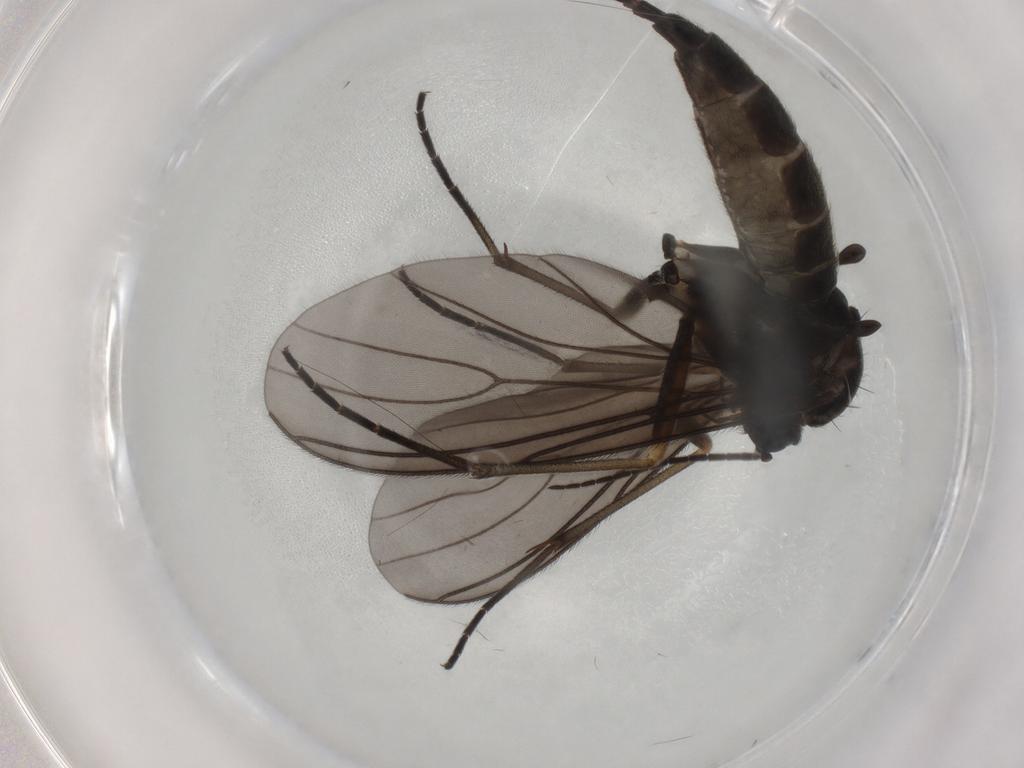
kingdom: Animalia
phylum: Arthropoda
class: Insecta
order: Diptera
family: Sciaridae
